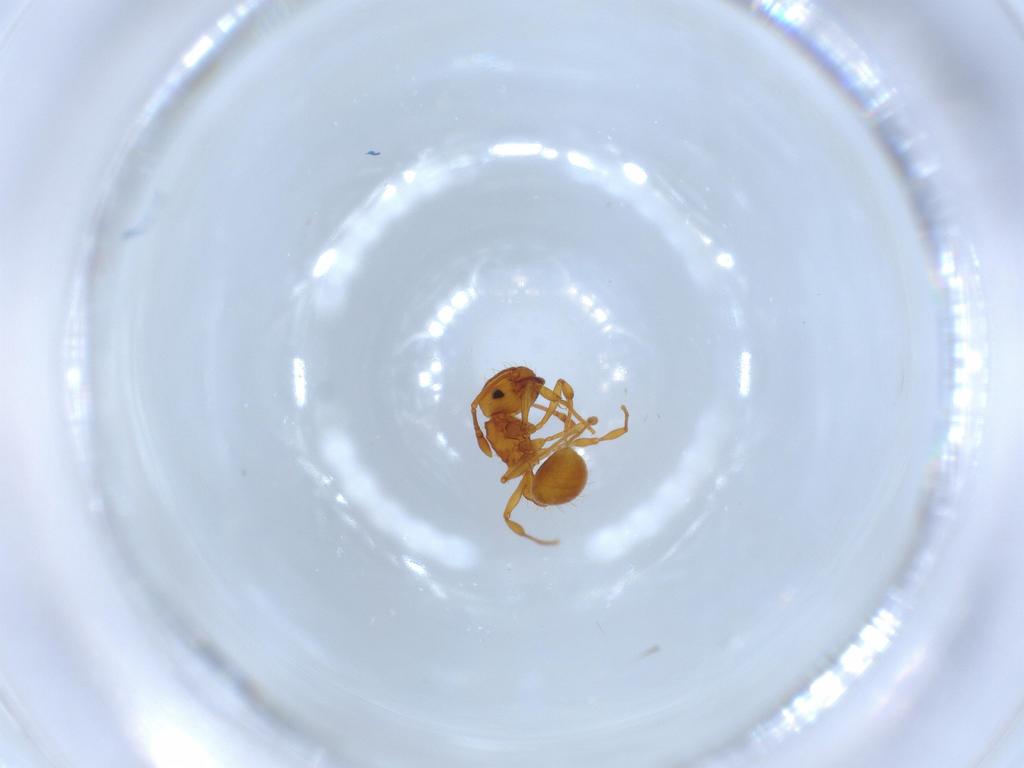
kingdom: Animalia
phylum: Arthropoda
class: Insecta
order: Hymenoptera
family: Formicidae
